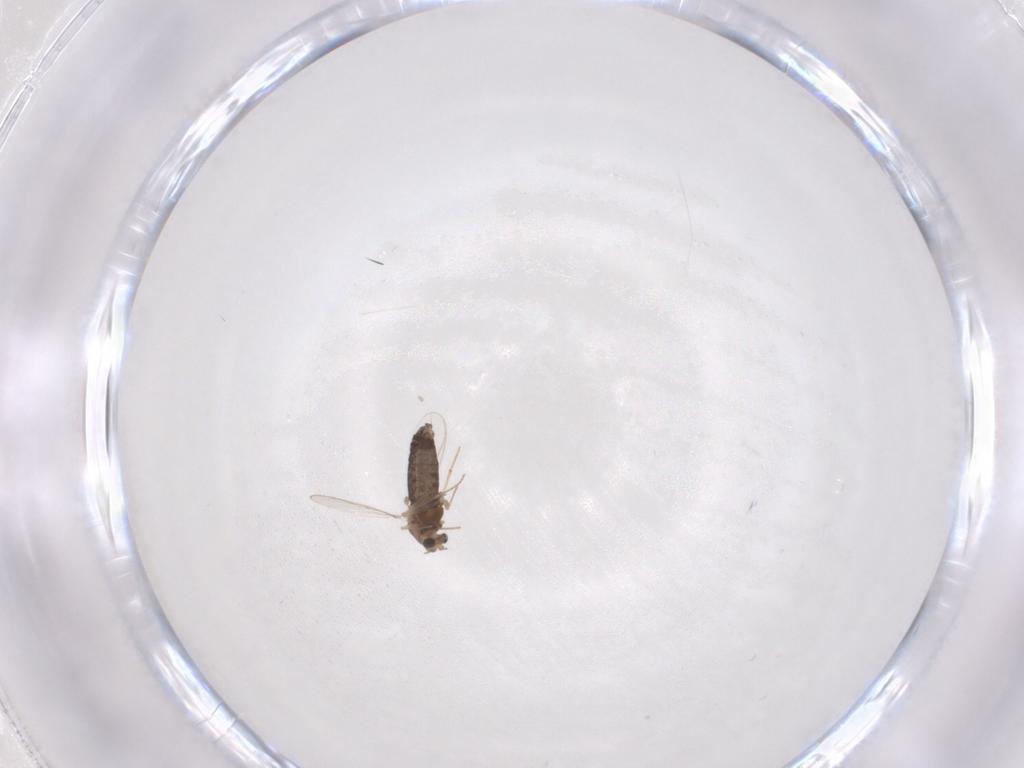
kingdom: Animalia
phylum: Arthropoda
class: Insecta
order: Diptera
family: Chironomidae
